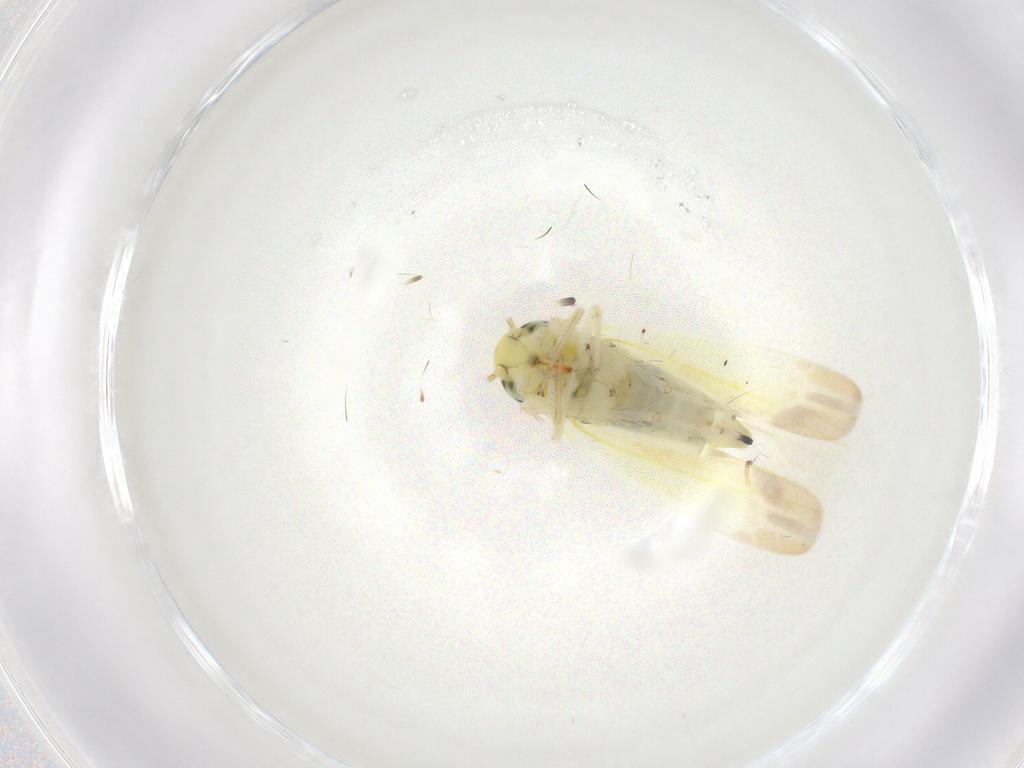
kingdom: Animalia
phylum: Arthropoda
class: Insecta
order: Hemiptera
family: Cicadellidae
